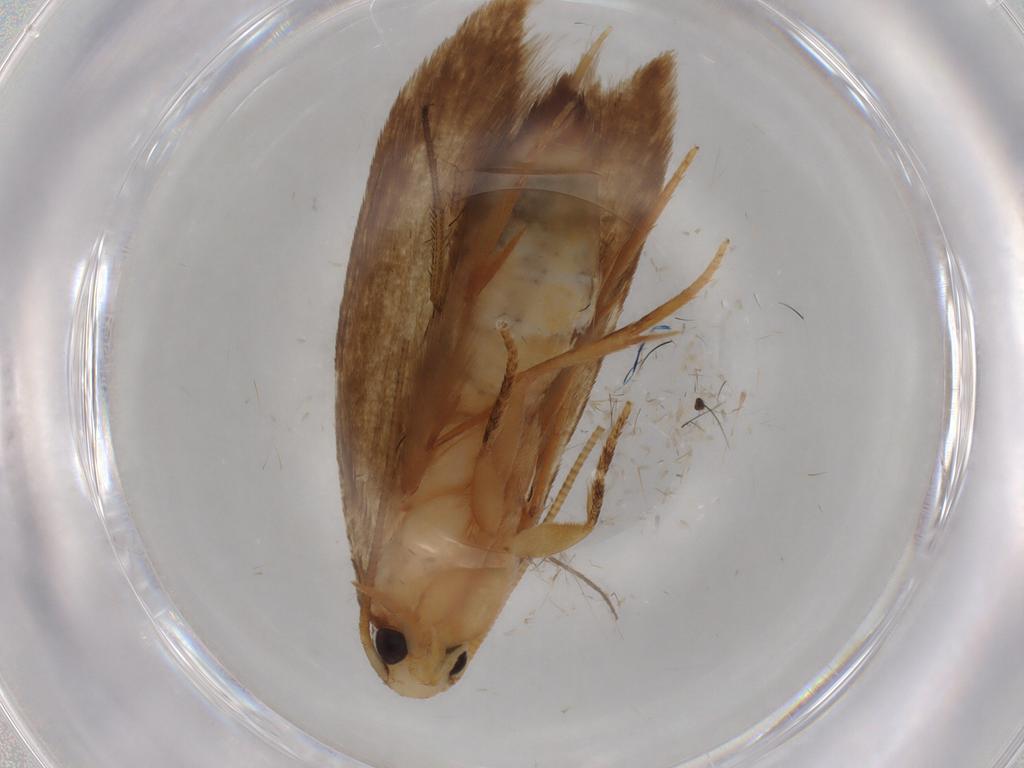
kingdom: Animalia
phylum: Arthropoda
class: Insecta
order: Lepidoptera
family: Tineidae
